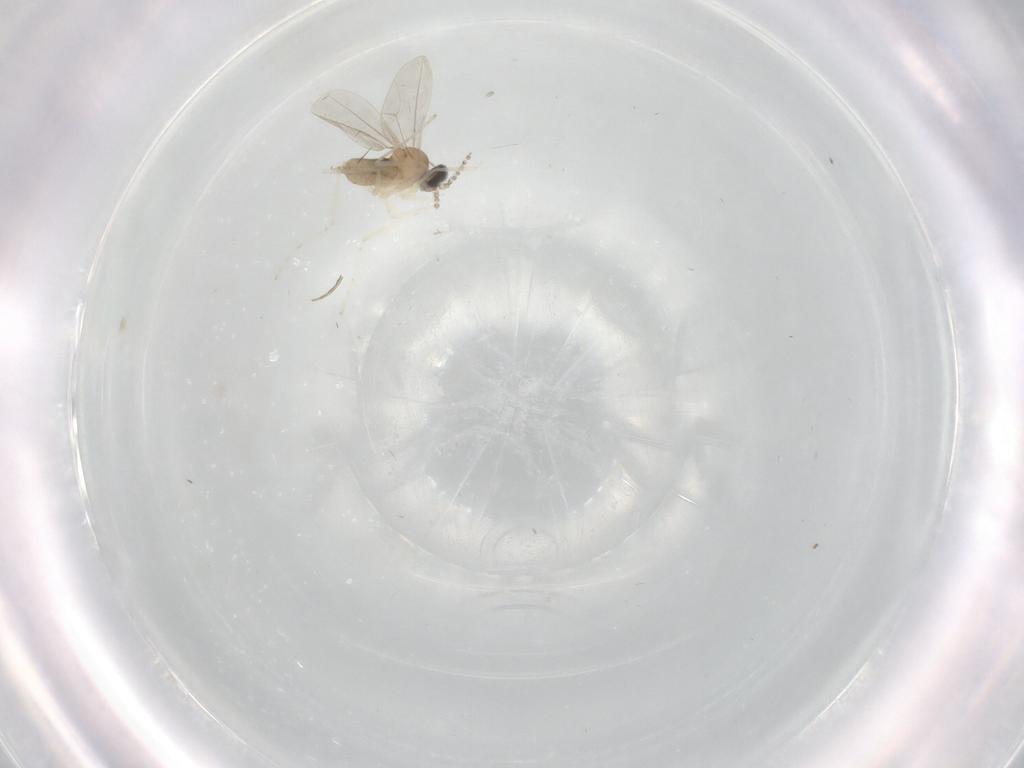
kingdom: Animalia
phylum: Arthropoda
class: Insecta
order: Diptera
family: Cecidomyiidae
